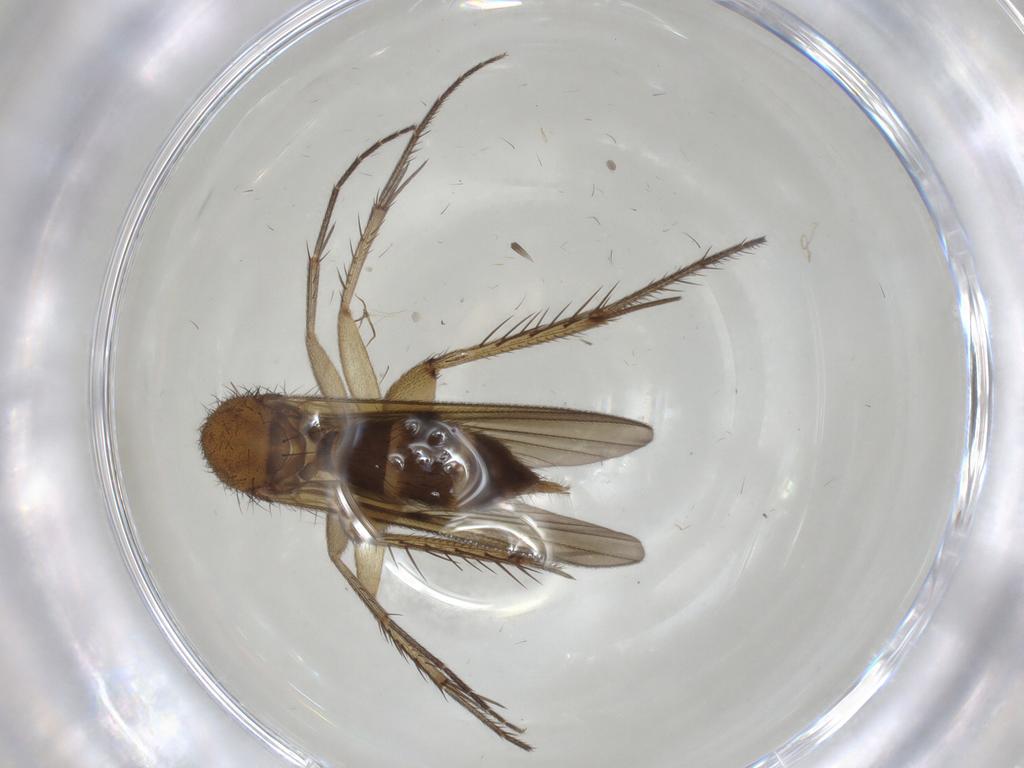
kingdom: Animalia
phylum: Arthropoda
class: Insecta
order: Diptera
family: Mycetophilidae
